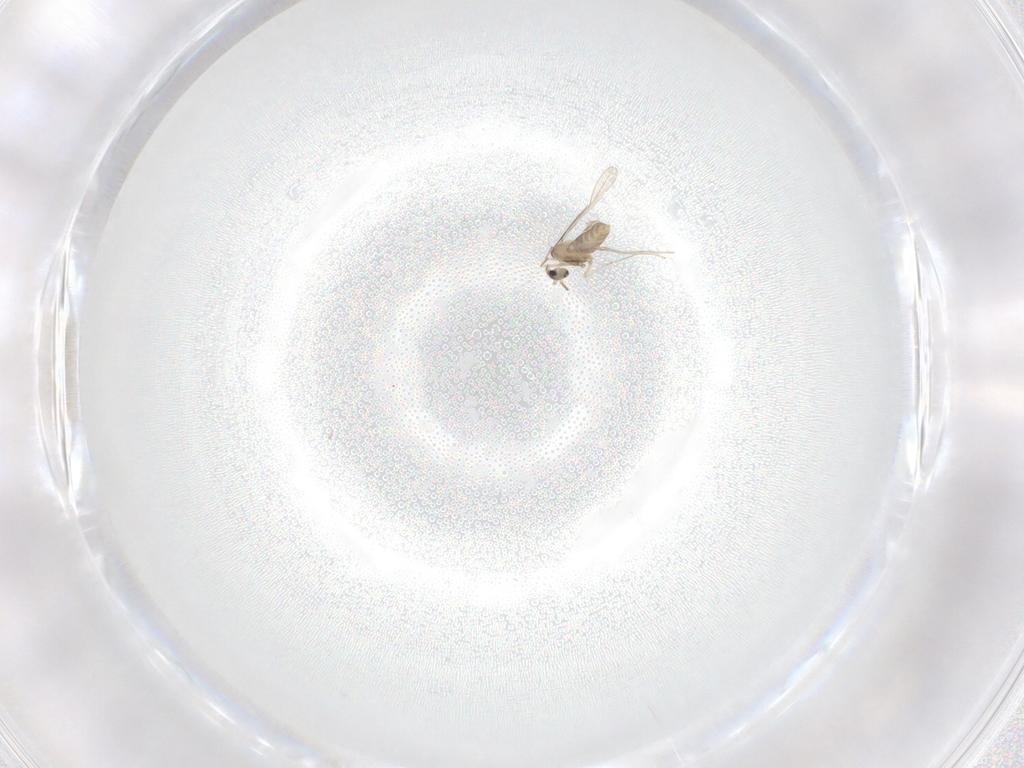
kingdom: Animalia
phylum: Arthropoda
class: Insecta
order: Diptera
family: Cecidomyiidae
